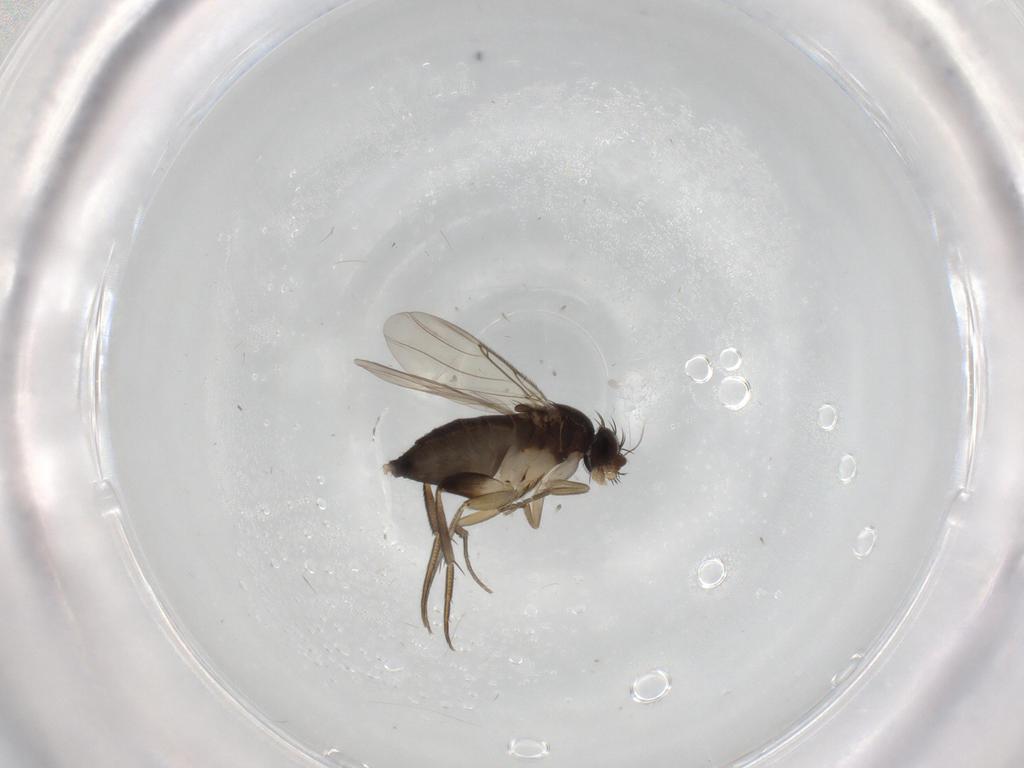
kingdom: Animalia
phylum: Arthropoda
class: Insecta
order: Diptera
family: Phoridae
